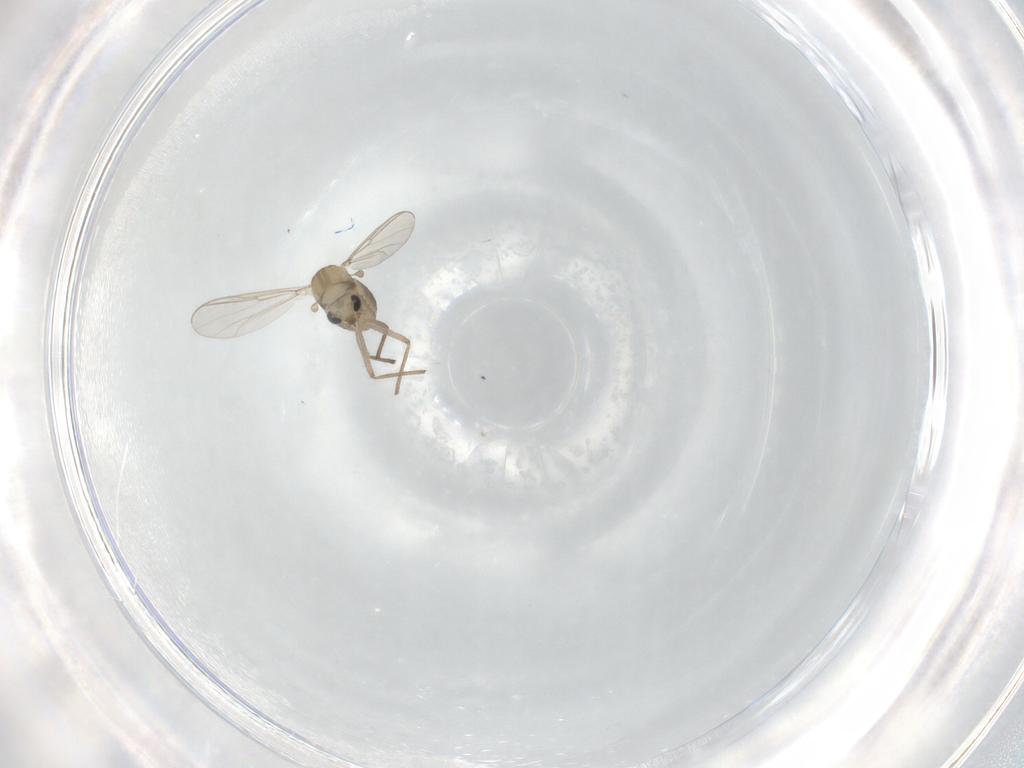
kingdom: Animalia
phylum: Arthropoda
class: Insecta
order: Diptera
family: Chironomidae
